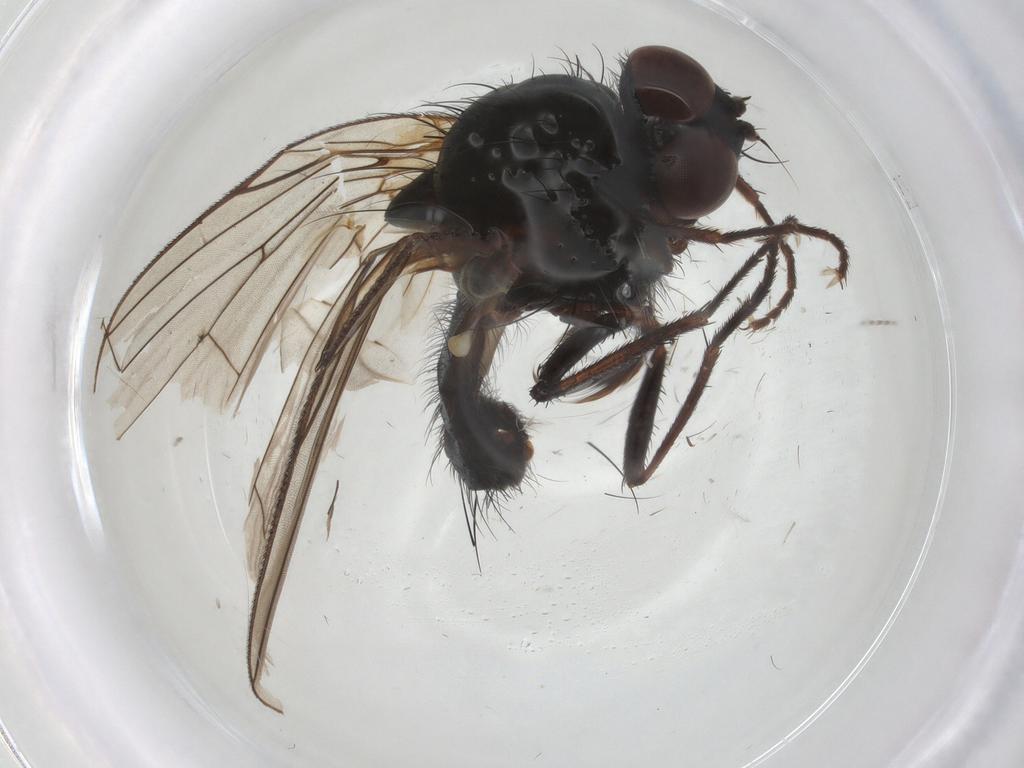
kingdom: Animalia
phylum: Arthropoda
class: Insecta
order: Diptera
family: Anthomyiidae
